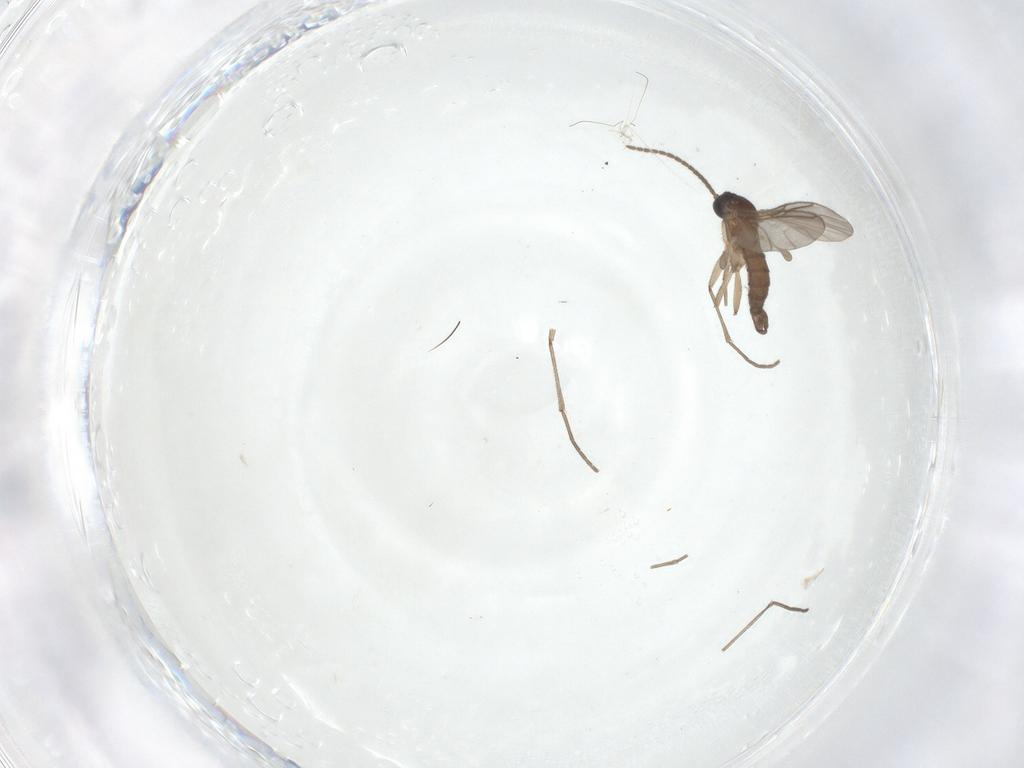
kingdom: Animalia
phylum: Arthropoda
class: Insecta
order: Diptera
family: Sciaridae
